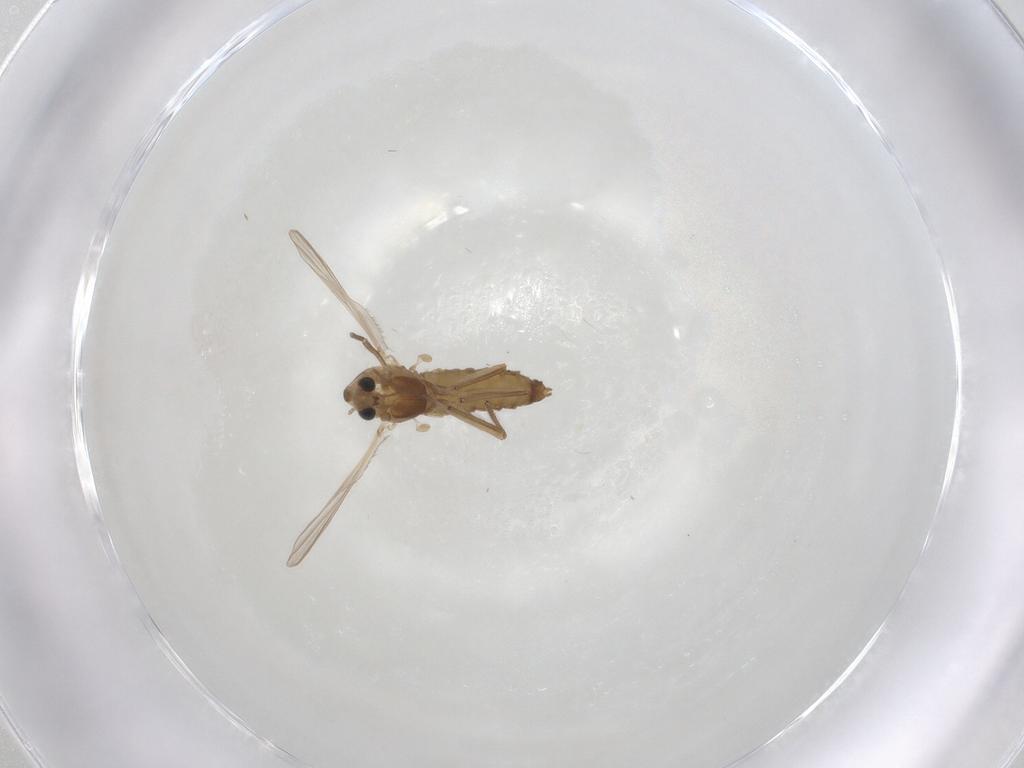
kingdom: Animalia
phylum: Arthropoda
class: Insecta
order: Diptera
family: Chironomidae
